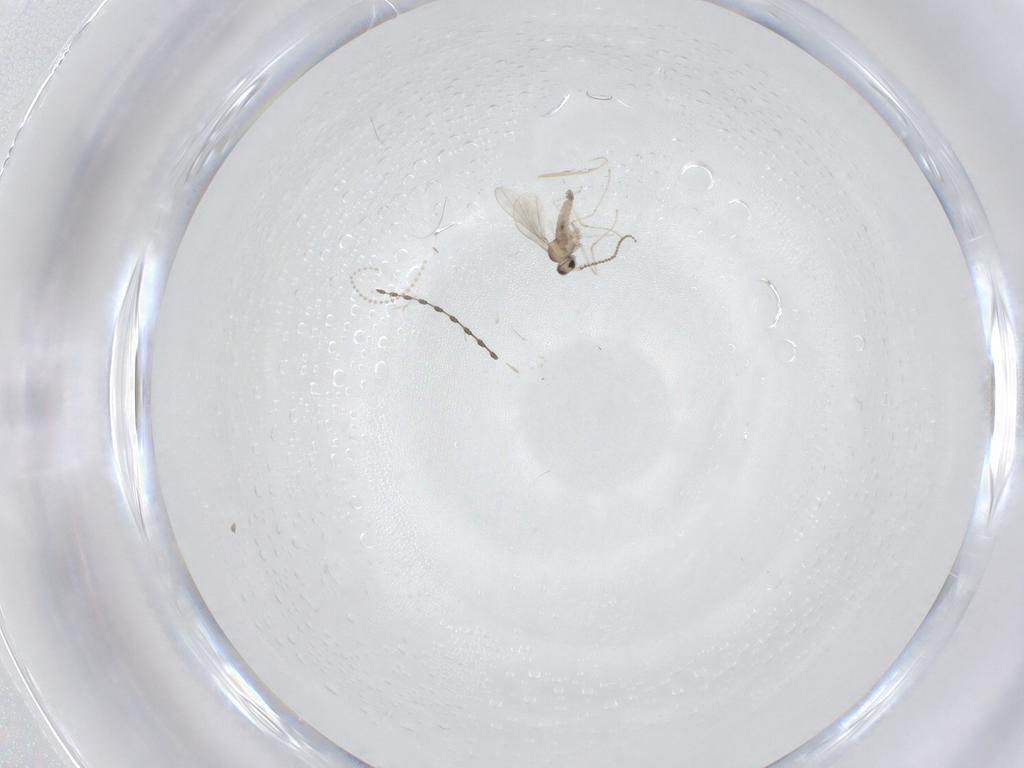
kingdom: Animalia
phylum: Arthropoda
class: Insecta
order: Diptera
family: Cecidomyiidae
